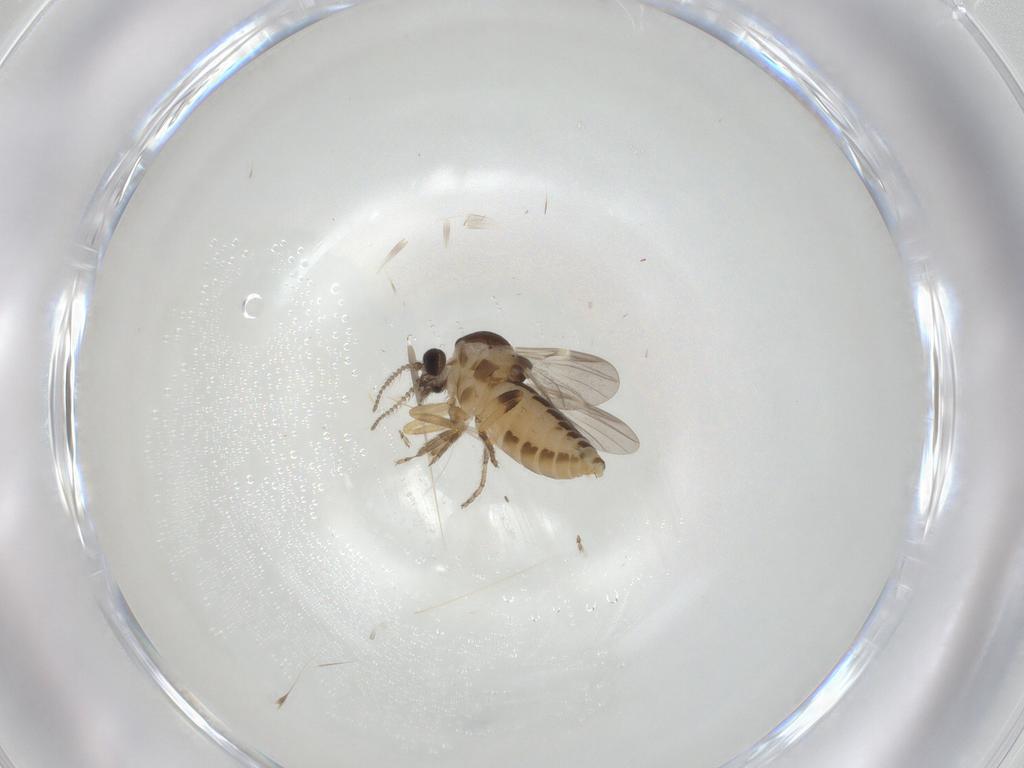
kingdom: Animalia
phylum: Arthropoda
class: Insecta
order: Diptera
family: Ceratopogonidae
